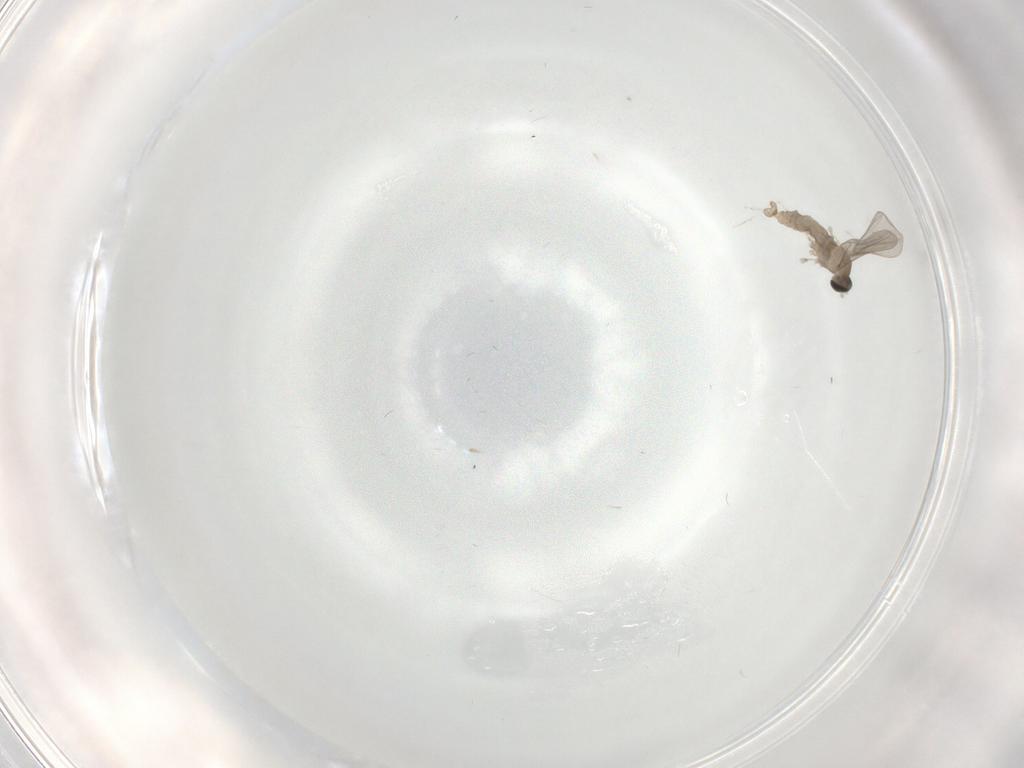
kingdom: Animalia
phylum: Arthropoda
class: Insecta
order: Diptera
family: Cecidomyiidae
